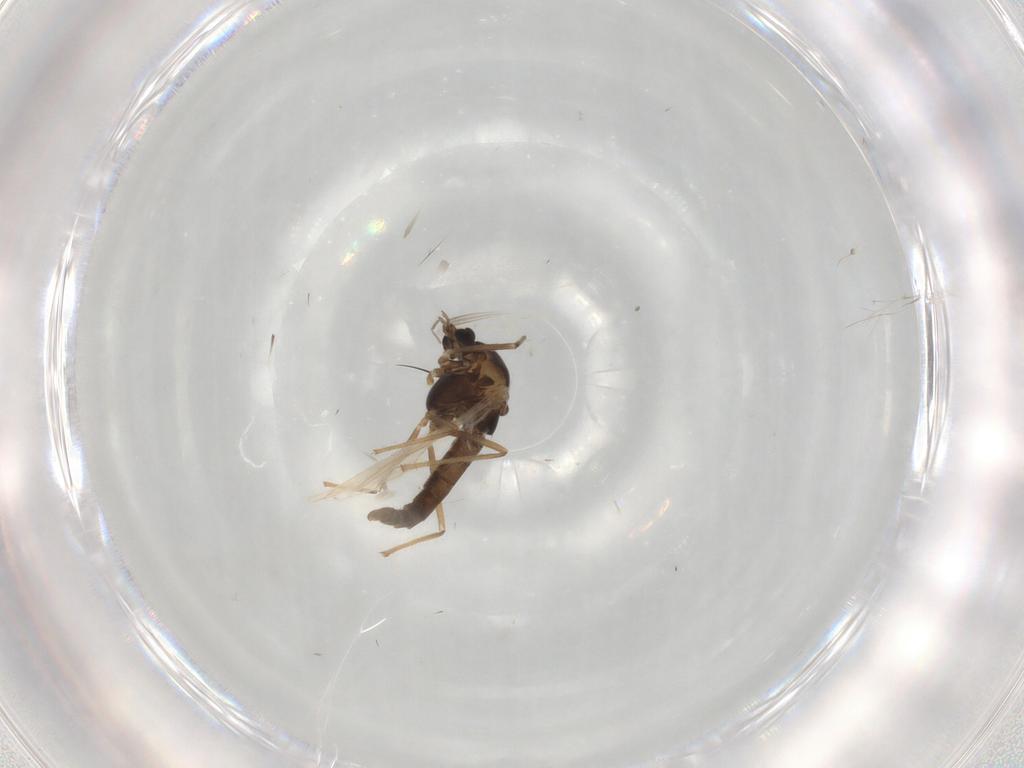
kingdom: Animalia
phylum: Arthropoda
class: Insecta
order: Diptera
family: Chironomidae
